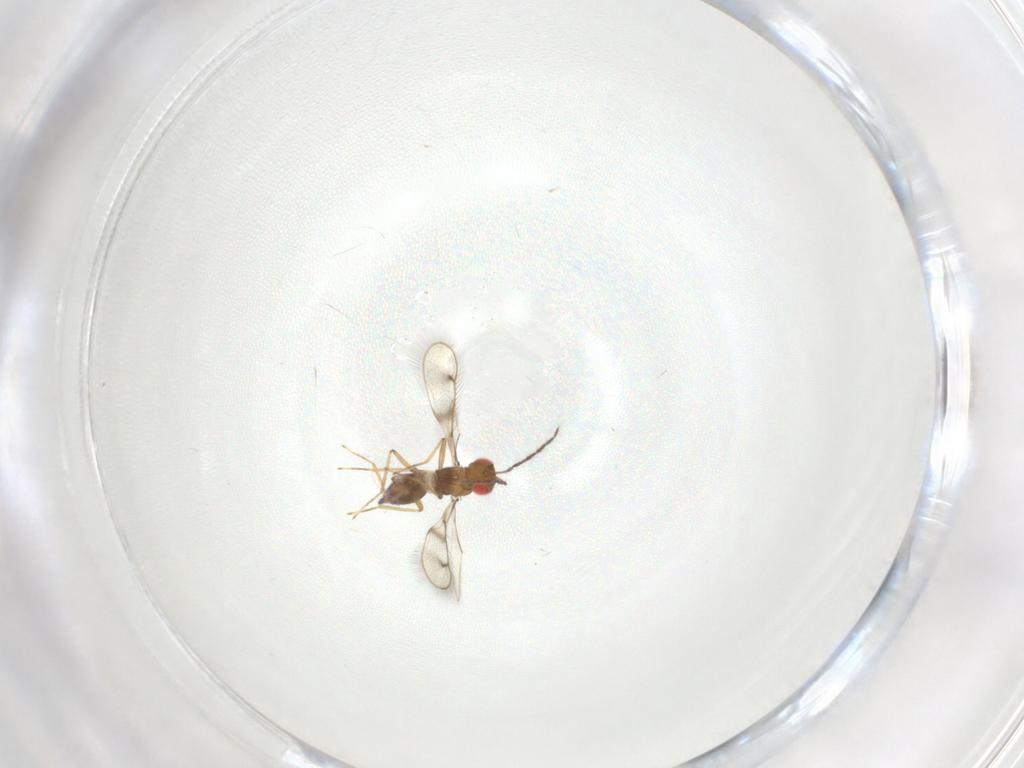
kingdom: Animalia
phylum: Arthropoda
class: Insecta
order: Hymenoptera
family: Eulophidae
